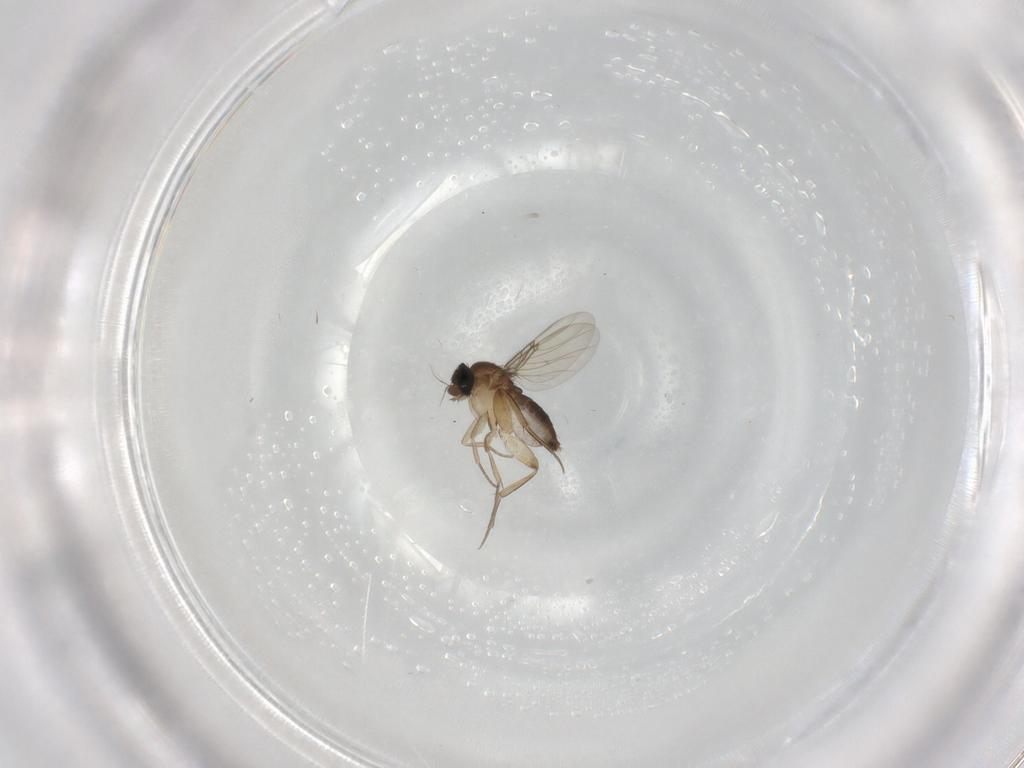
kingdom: Animalia
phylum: Arthropoda
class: Insecta
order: Diptera
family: Phoridae
